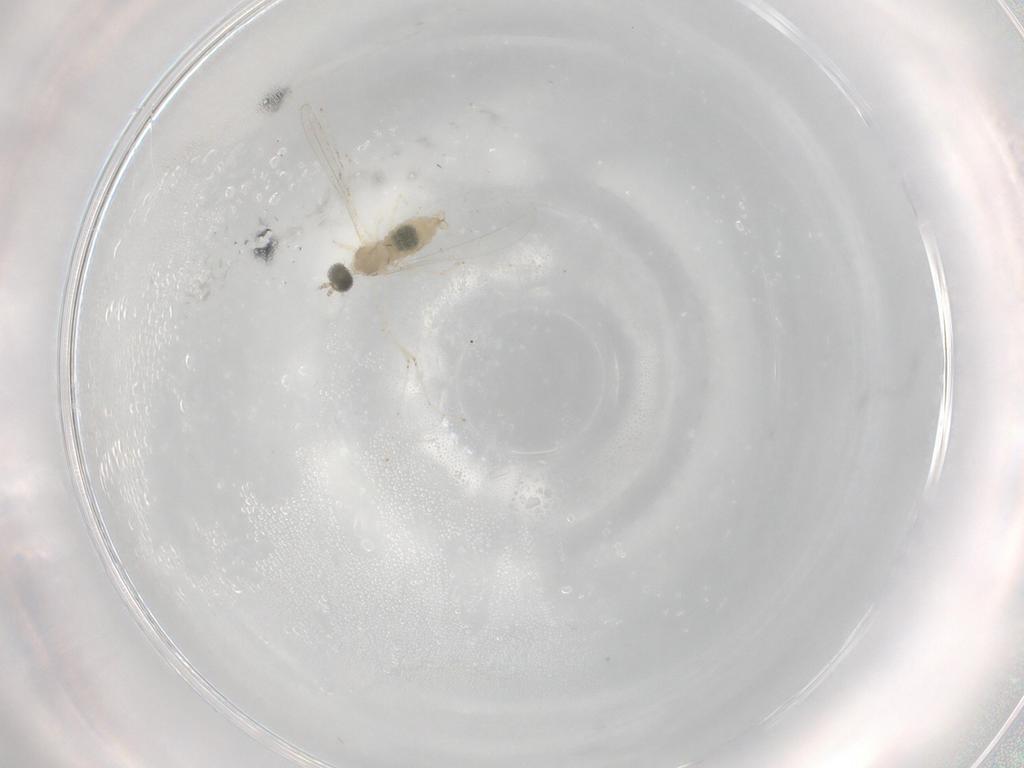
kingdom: Animalia
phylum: Arthropoda
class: Insecta
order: Diptera
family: Cecidomyiidae
